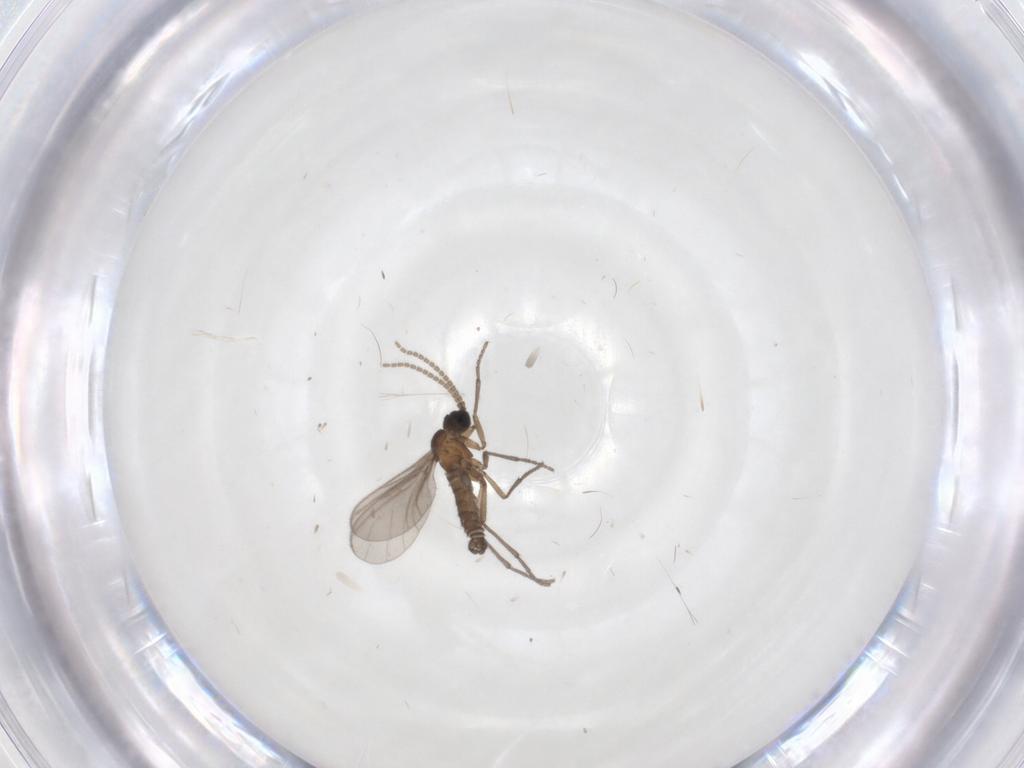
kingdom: Animalia
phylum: Arthropoda
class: Insecta
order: Diptera
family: Sciaridae
